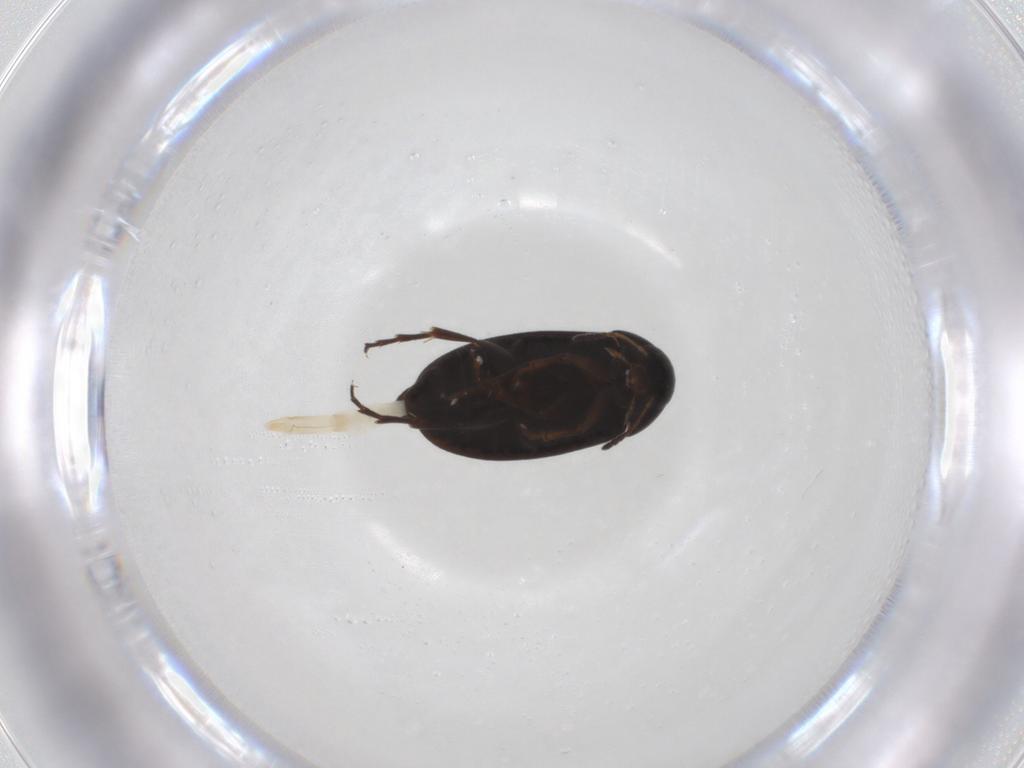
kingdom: Animalia
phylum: Arthropoda
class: Insecta
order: Coleoptera
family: Scraptiidae
